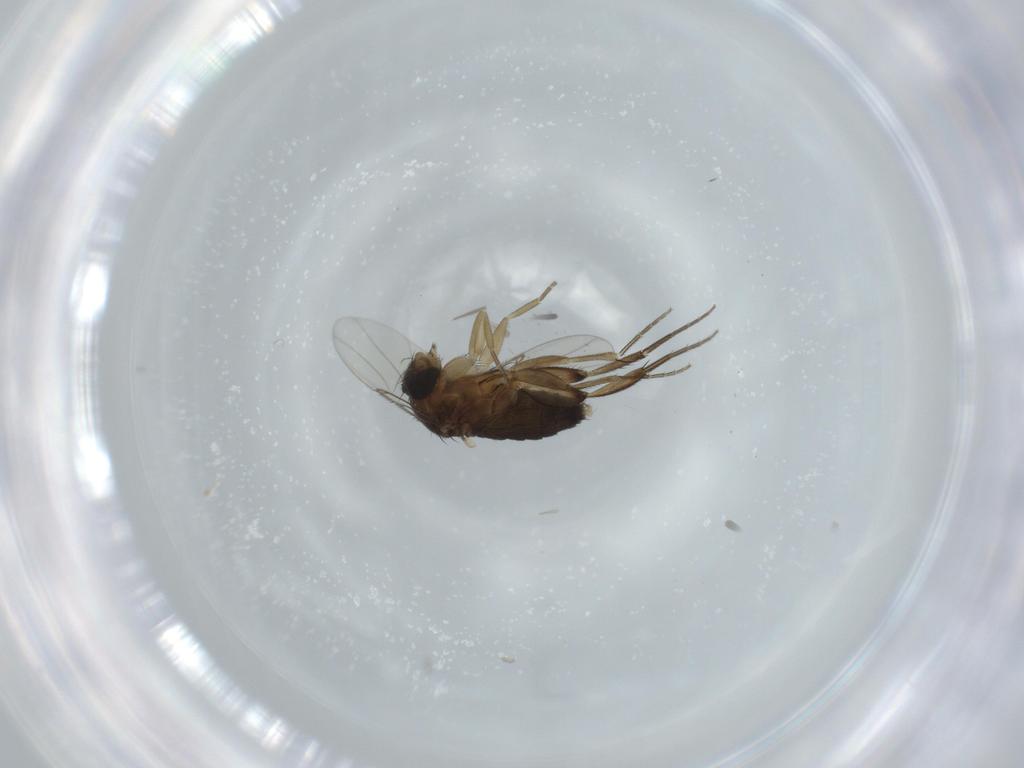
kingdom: Animalia
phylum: Arthropoda
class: Insecta
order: Diptera
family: Phoridae
